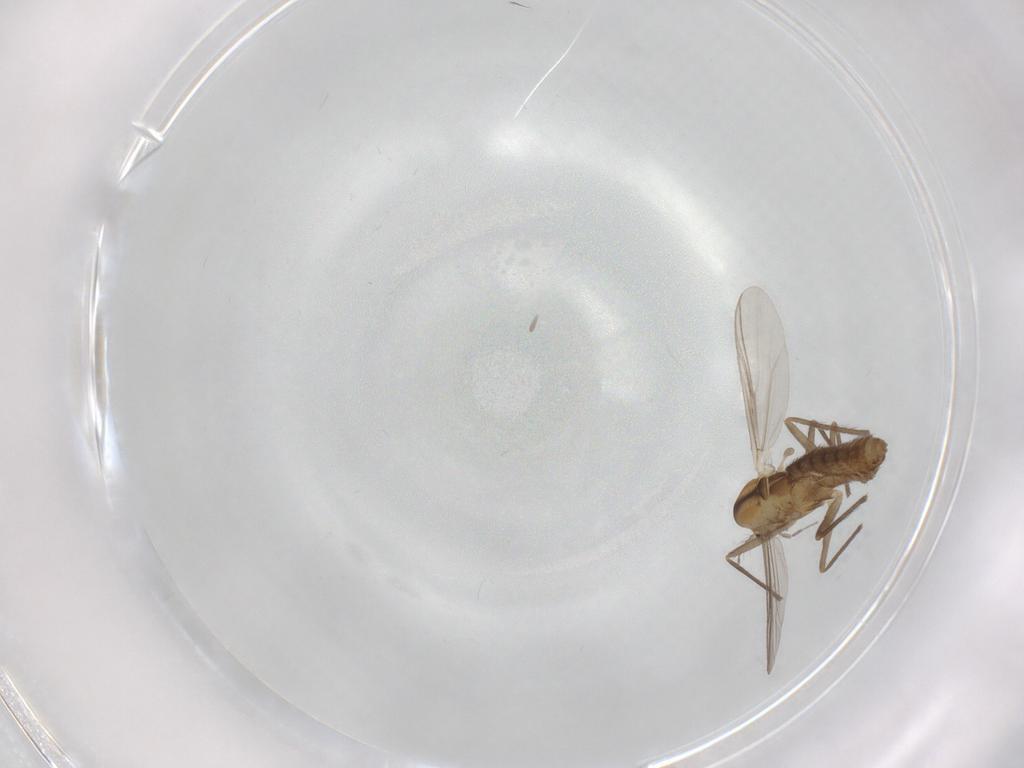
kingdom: Animalia
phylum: Arthropoda
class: Insecta
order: Diptera
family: Chironomidae
